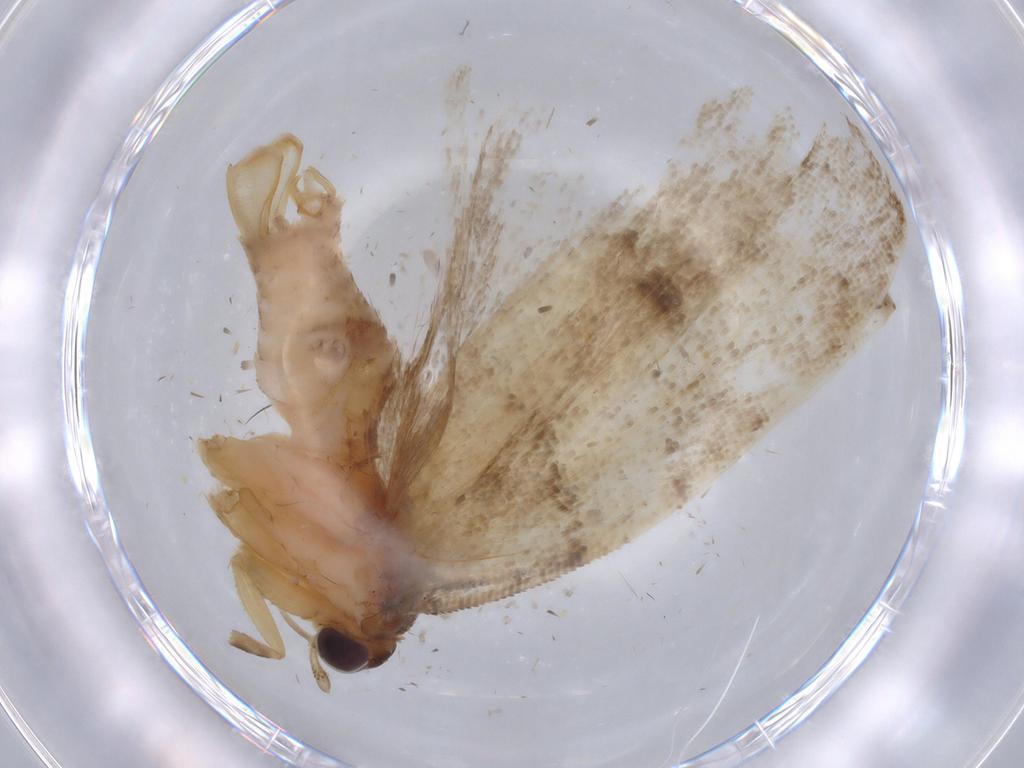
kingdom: Animalia
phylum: Arthropoda
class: Insecta
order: Lepidoptera
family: Tortricidae
